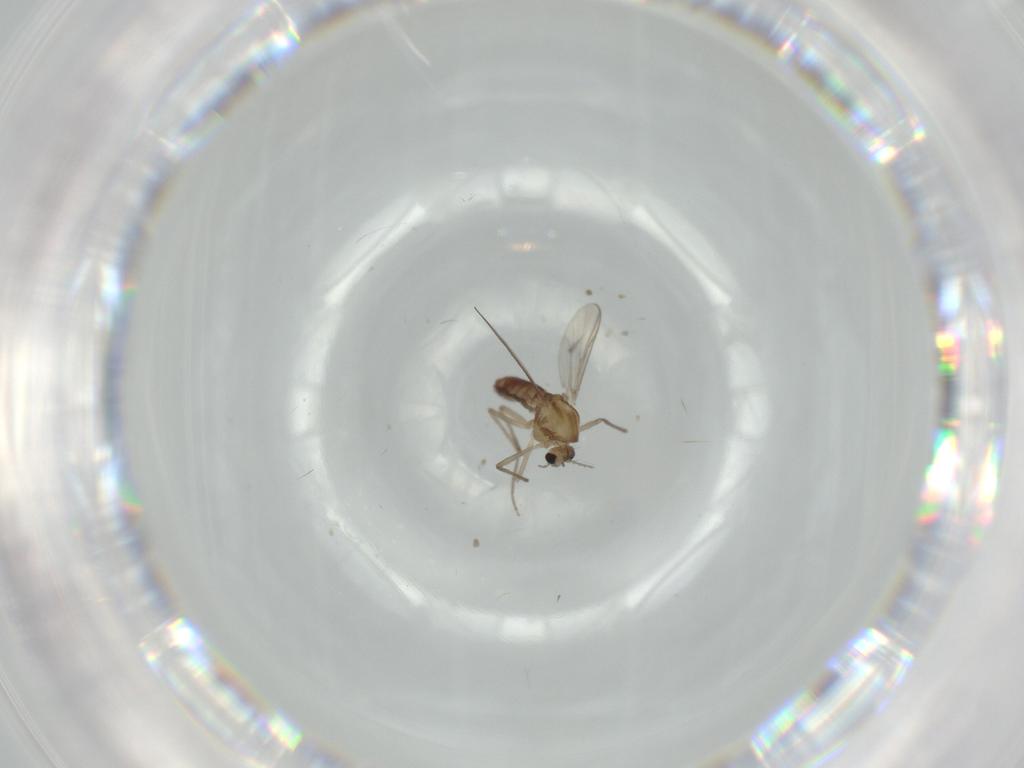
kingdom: Animalia
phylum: Arthropoda
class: Insecta
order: Diptera
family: Chironomidae
